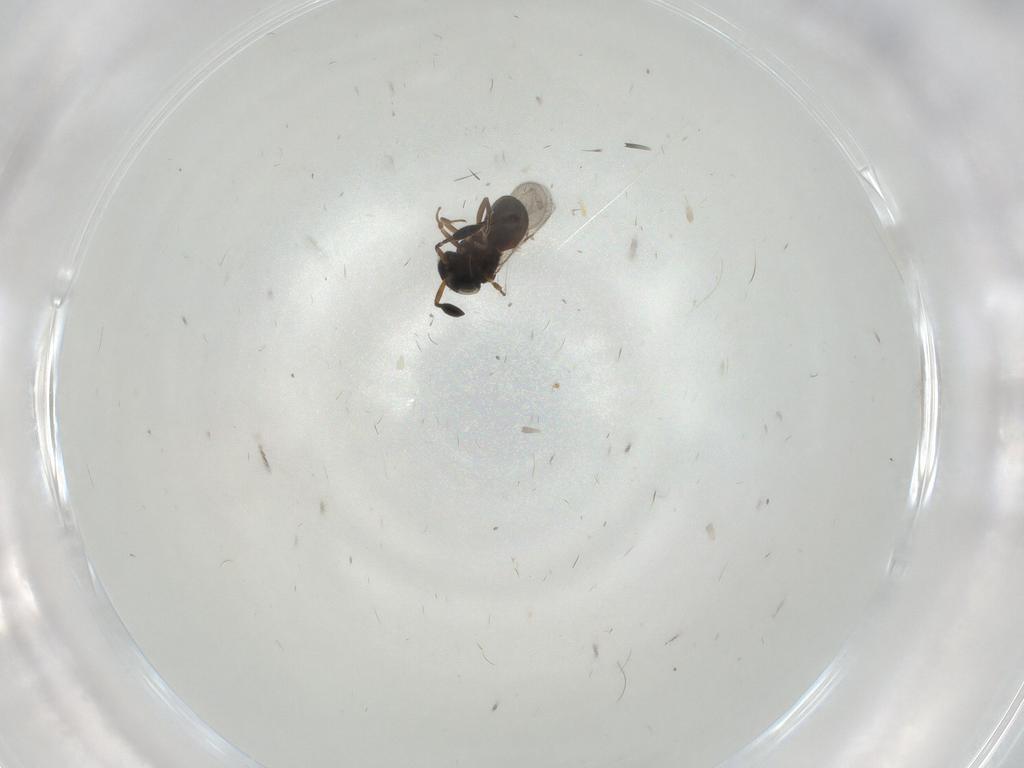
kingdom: Animalia
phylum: Arthropoda
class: Insecta
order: Hymenoptera
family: Scelionidae
